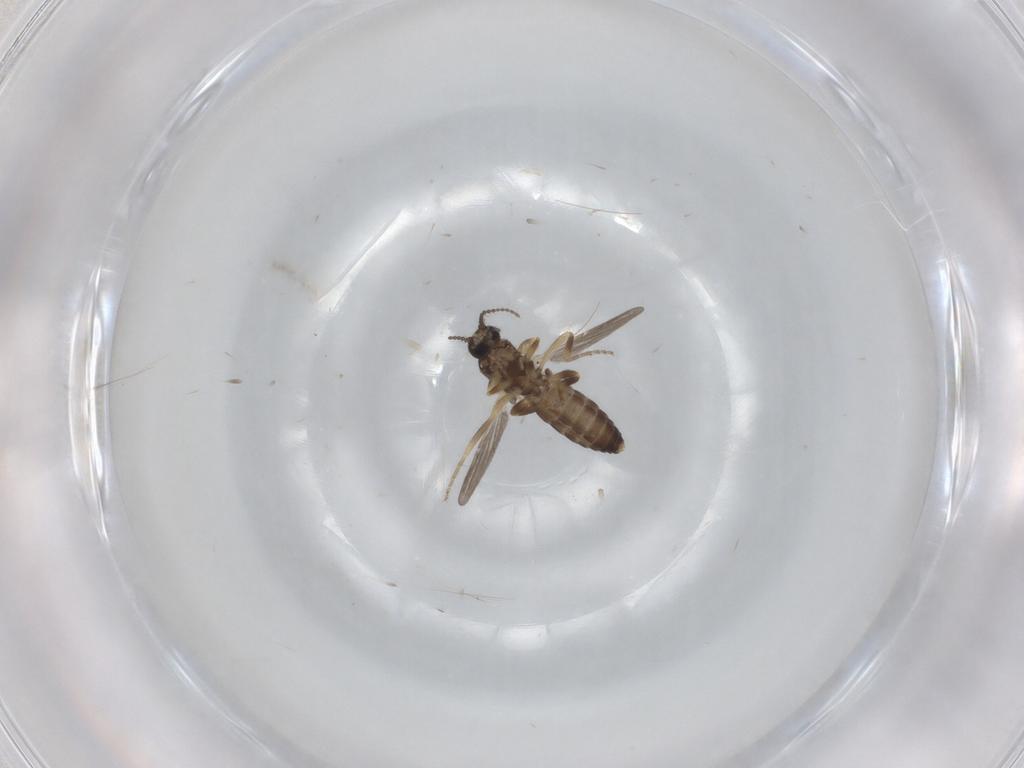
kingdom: Animalia
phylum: Arthropoda
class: Insecta
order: Diptera
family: Ceratopogonidae
